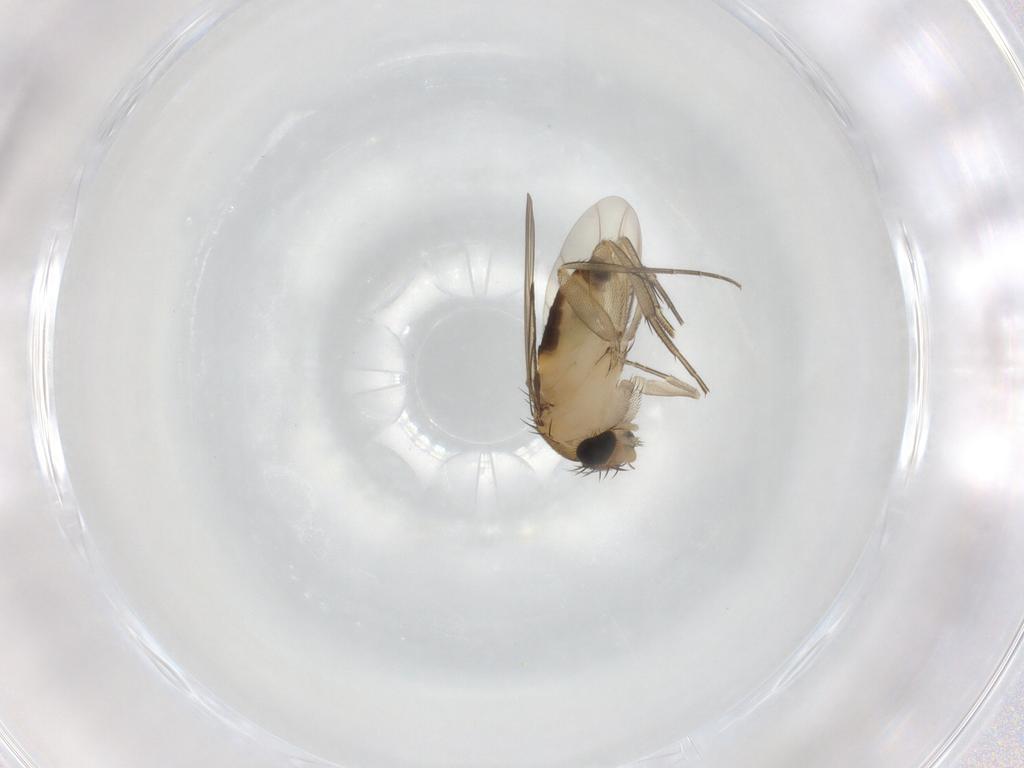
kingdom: Animalia
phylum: Arthropoda
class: Insecta
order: Diptera
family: Phoridae
